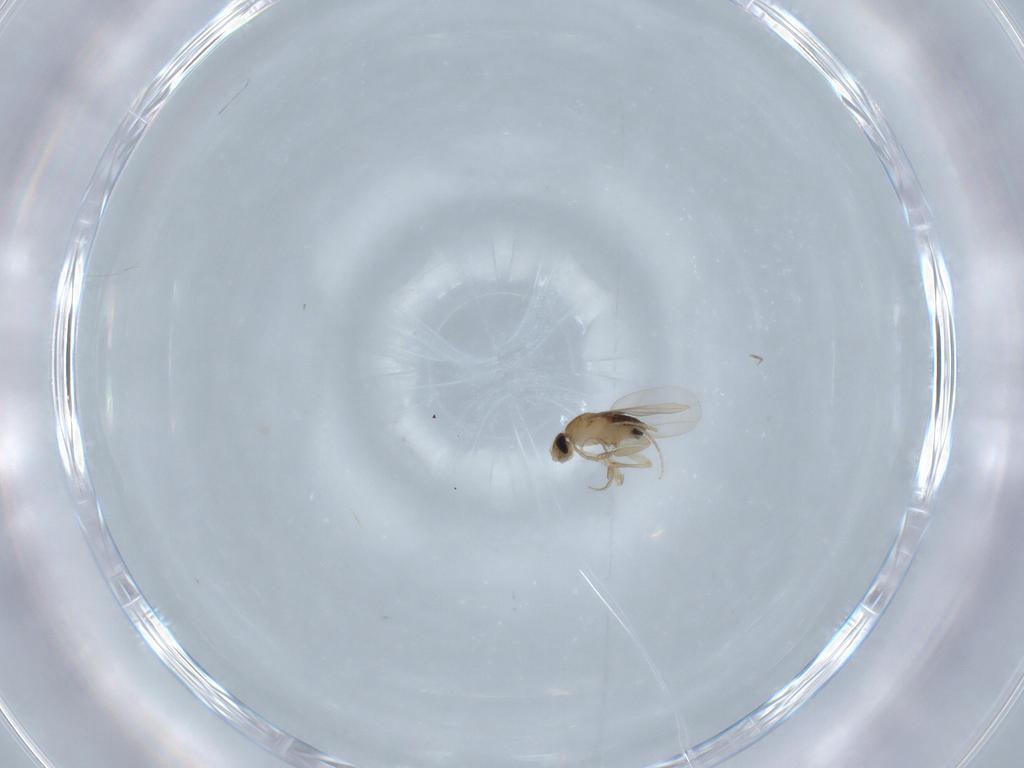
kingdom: Animalia
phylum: Arthropoda
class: Insecta
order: Diptera
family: Phoridae
